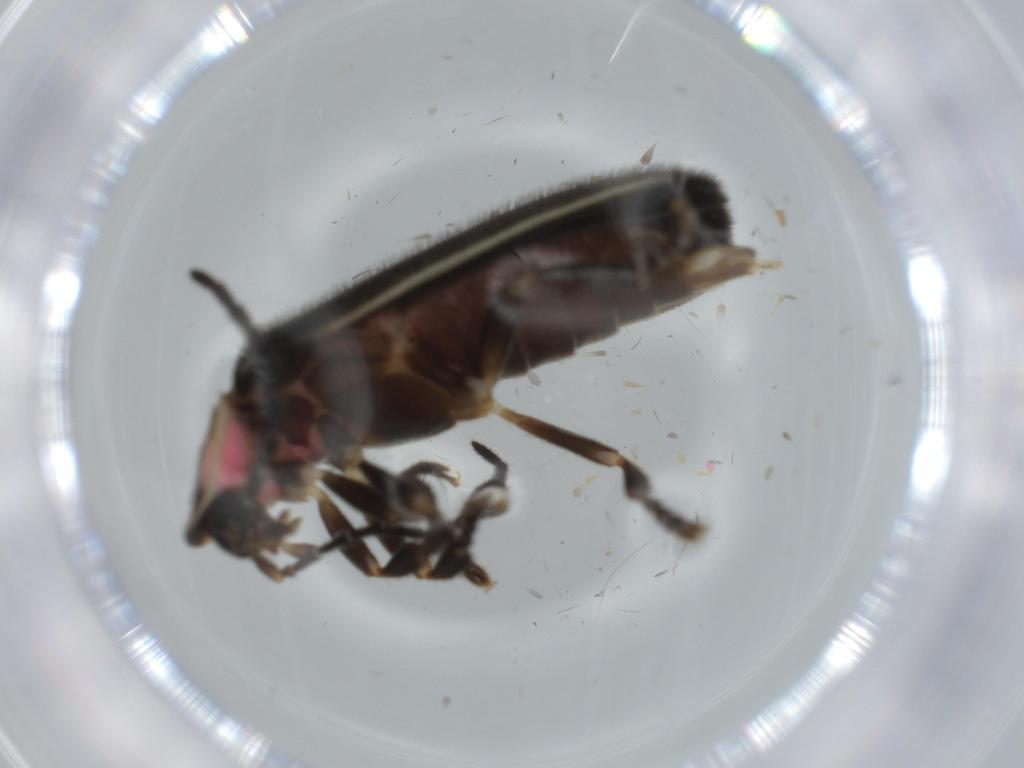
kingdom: Animalia
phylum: Arthropoda
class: Insecta
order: Coleoptera
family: Lampyridae
